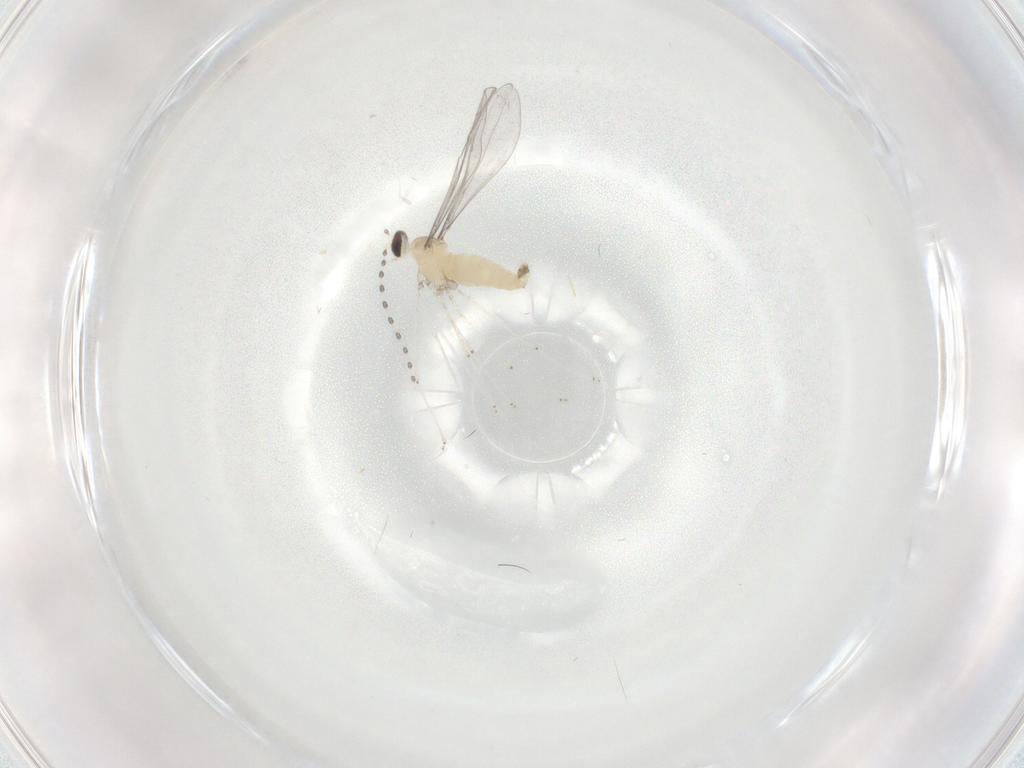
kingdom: Animalia
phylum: Arthropoda
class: Insecta
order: Diptera
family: Cecidomyiidae
